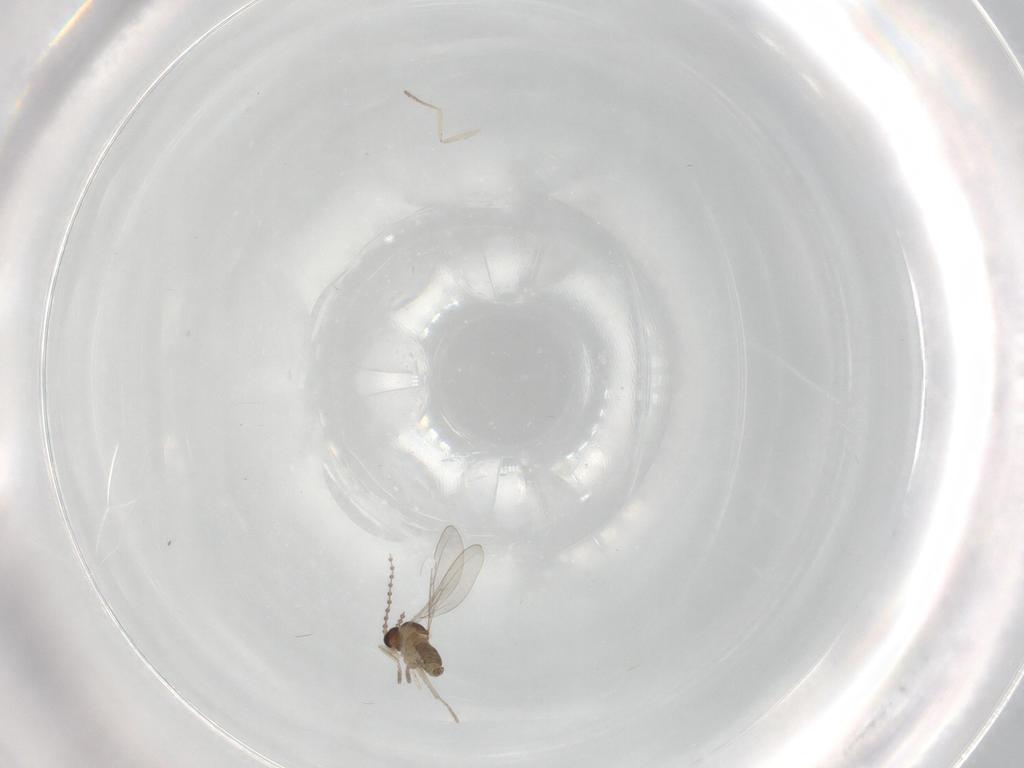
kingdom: Animalia
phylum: Arthropoda
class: Insecta
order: Diptera
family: Cecidomyiidae
